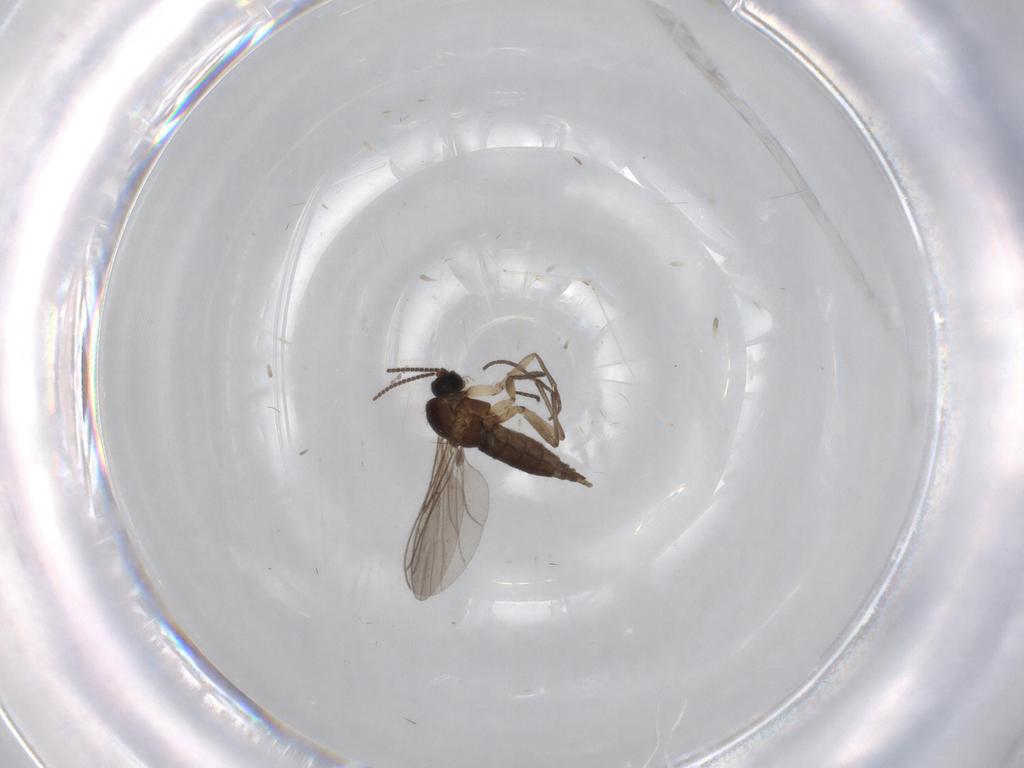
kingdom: Animalia
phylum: Arthropoda
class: Insecta
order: Diptera
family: Sciaridae
